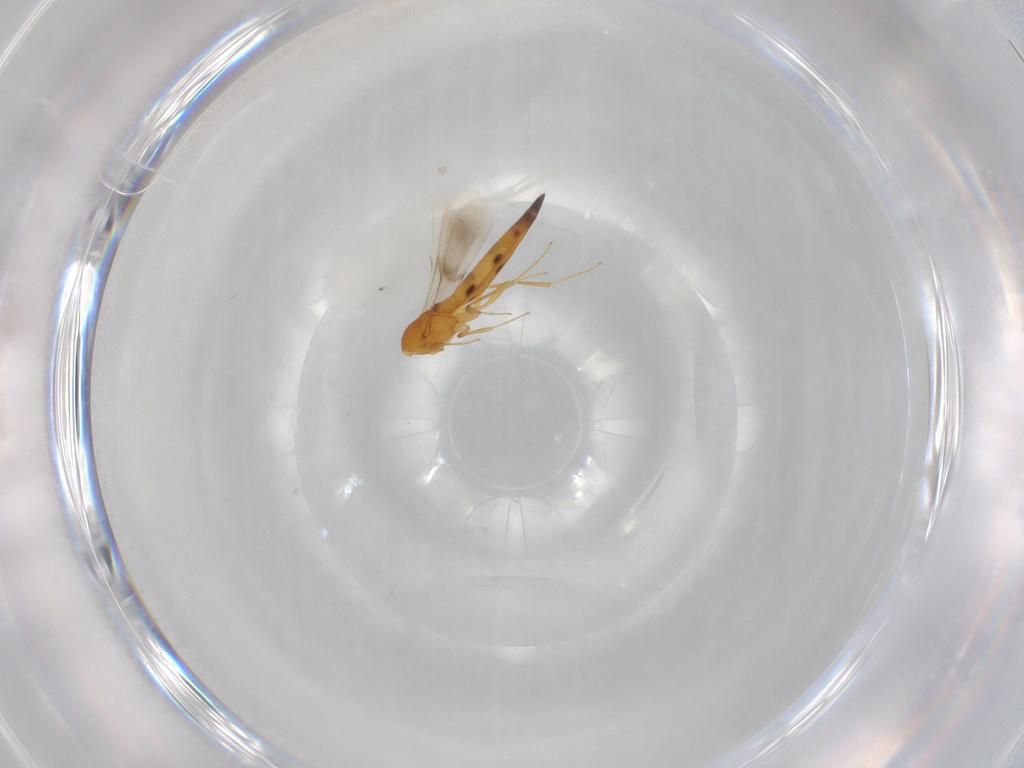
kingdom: Animalia
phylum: Arthropoda
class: Insecta
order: Hymenoptera
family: Scelionidae
